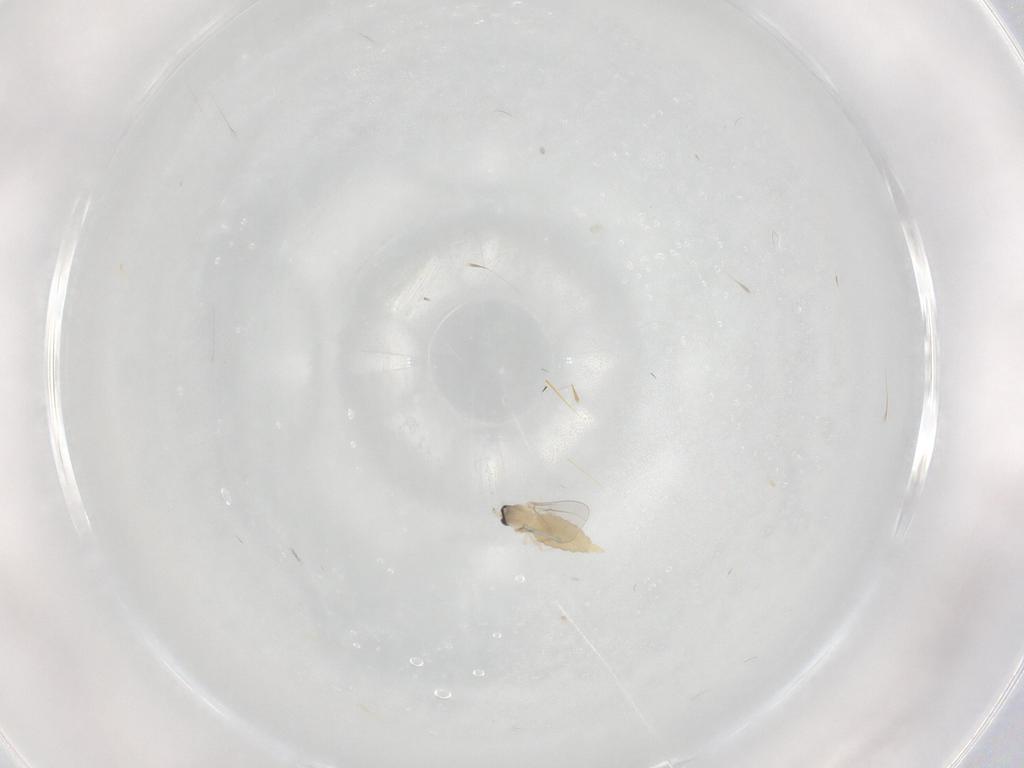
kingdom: Animalia
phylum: Arthropoda
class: Insecta
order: Diptera
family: Cecidomyiidae
